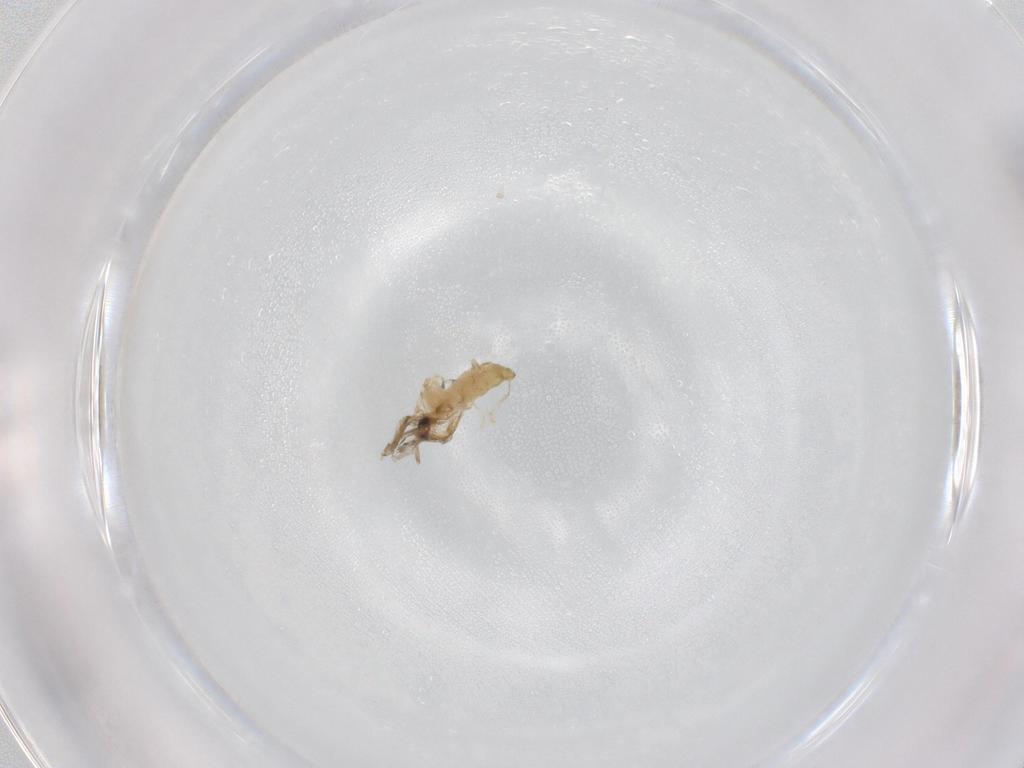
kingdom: Animalia
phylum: Arthropoda
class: Insecta
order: Diptera
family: Chironomidae
